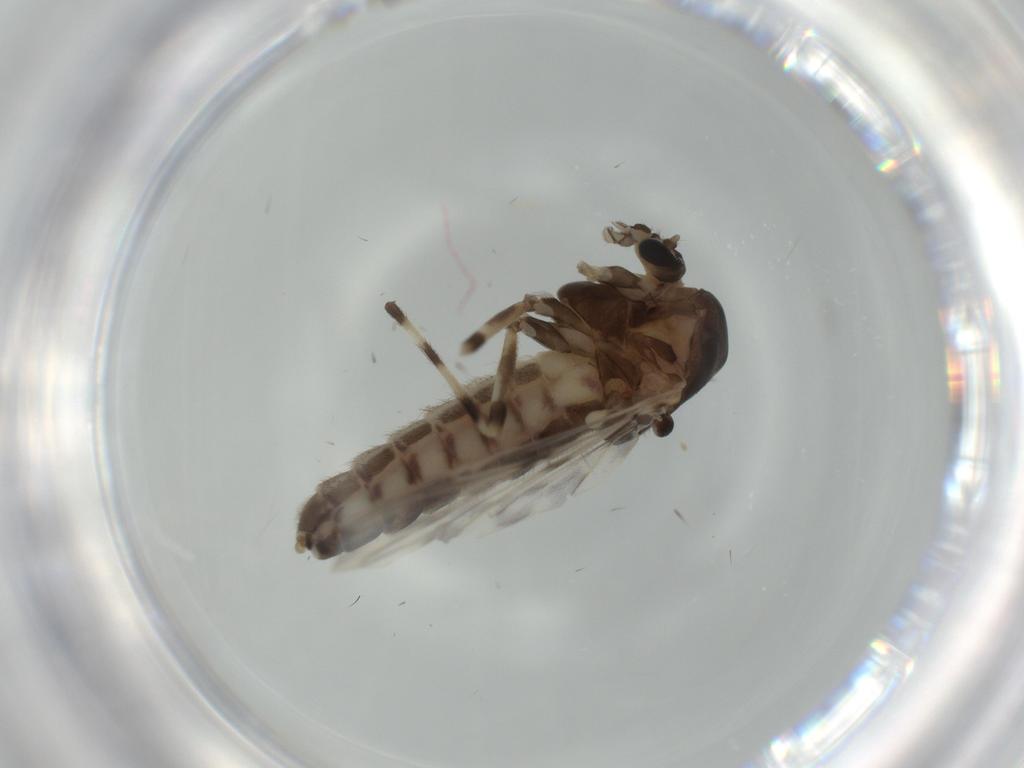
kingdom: Animalia
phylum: Arthropoda
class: Insecta
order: Diptera
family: Chironomidae
